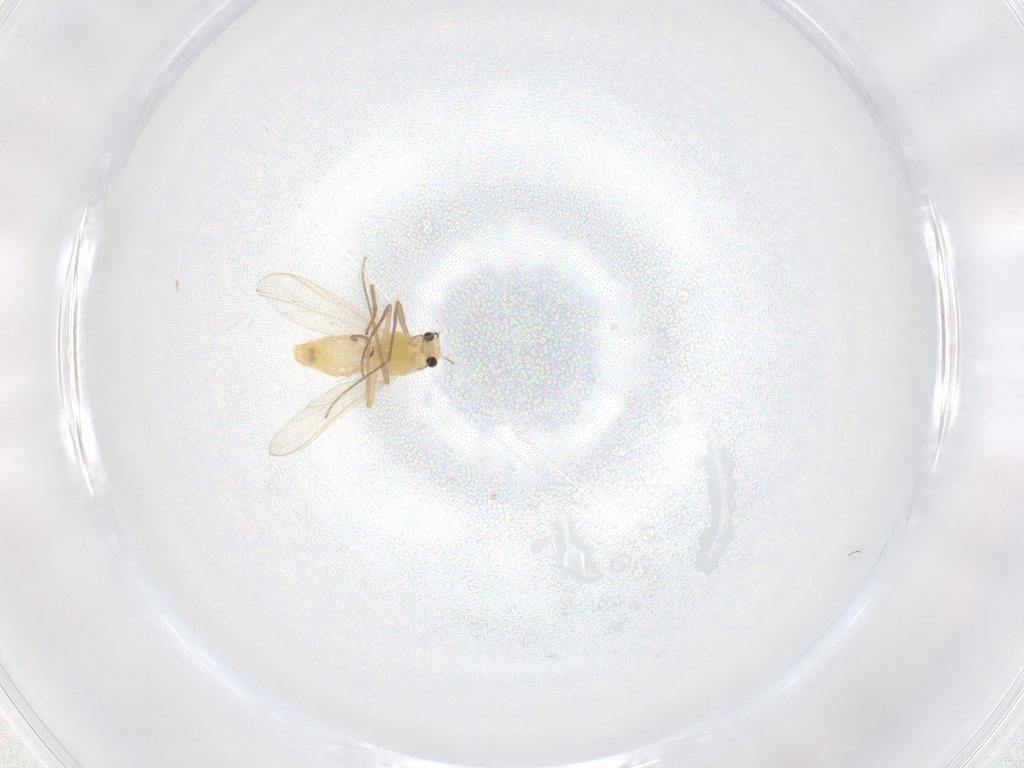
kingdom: Animalia
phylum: Arthropoda
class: Insecta
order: Diptera
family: Chironomidae
